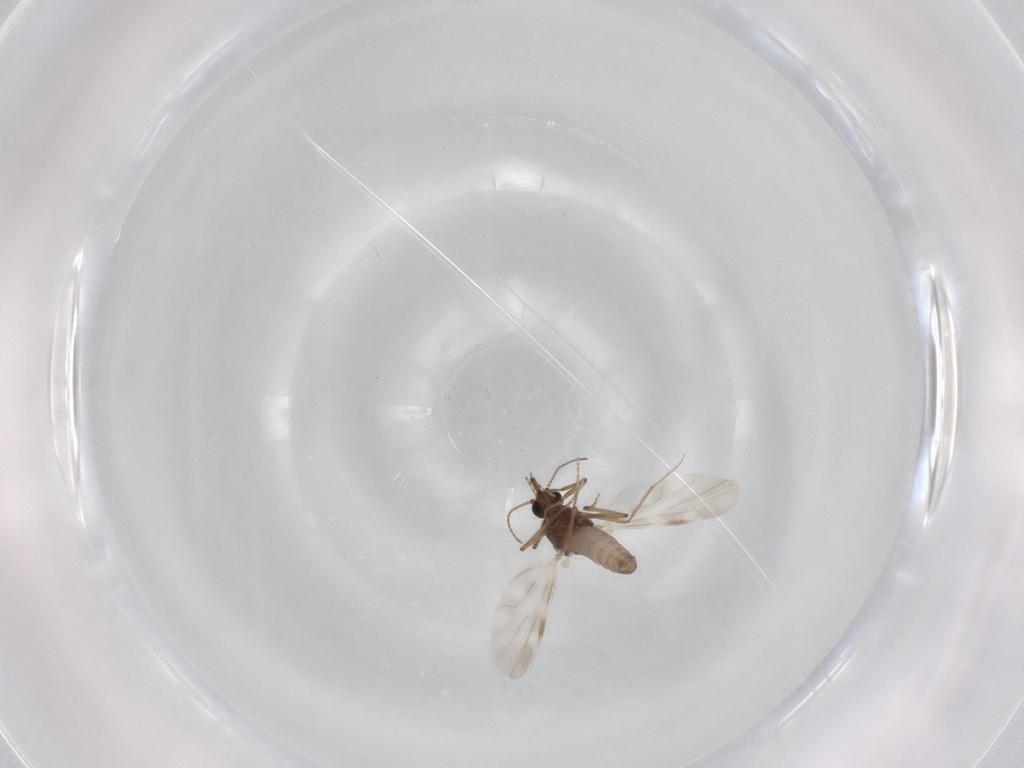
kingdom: Animalia
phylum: Arthropoda
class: Insecta
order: Diptera
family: Ceratopogonidae
